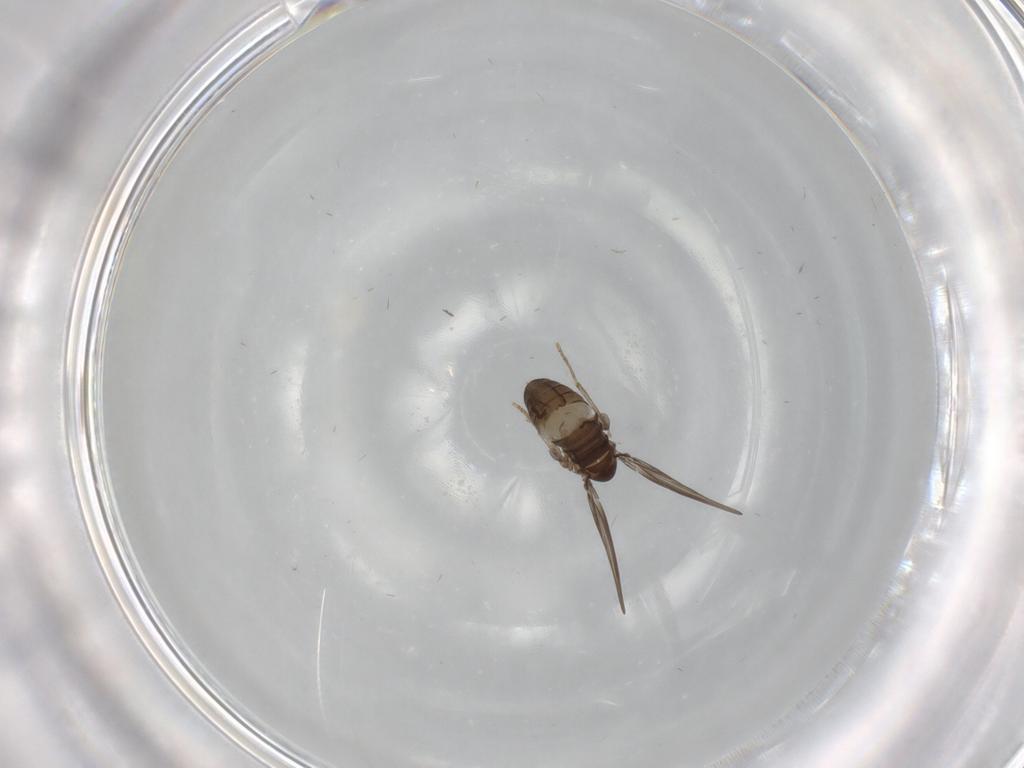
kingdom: Animalia
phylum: Arthropoda
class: Insecta
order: Diptera
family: Psychodidae
